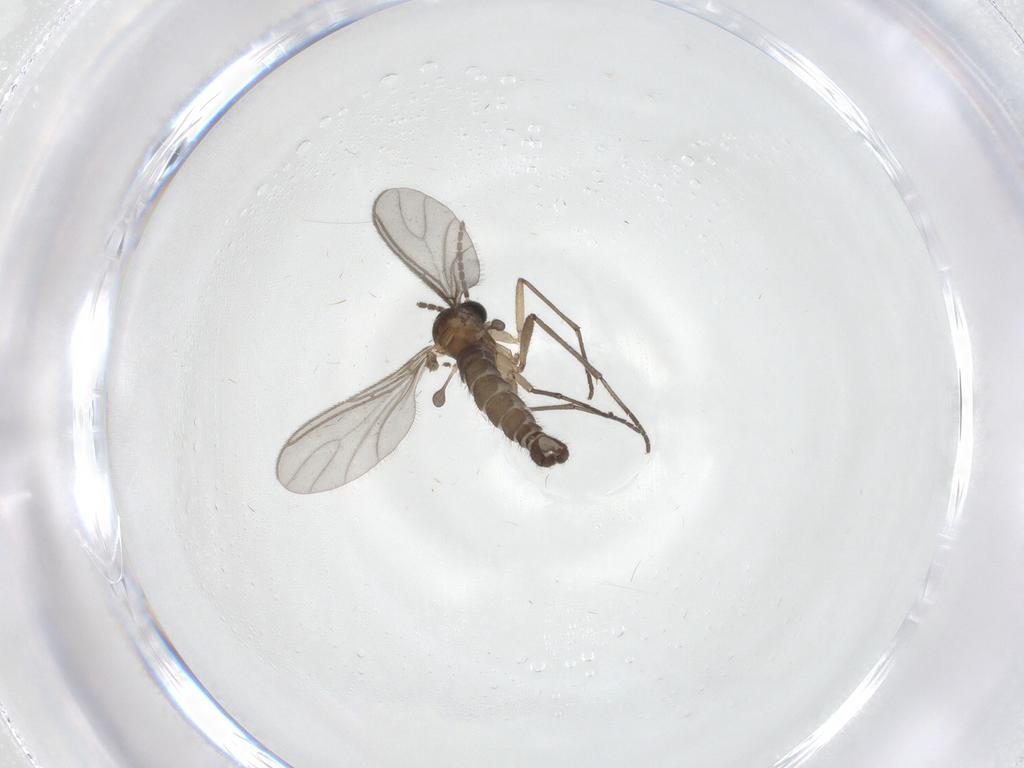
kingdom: Animalia
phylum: Arthropoda
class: Insecta
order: Diptera
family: Sciaridae
